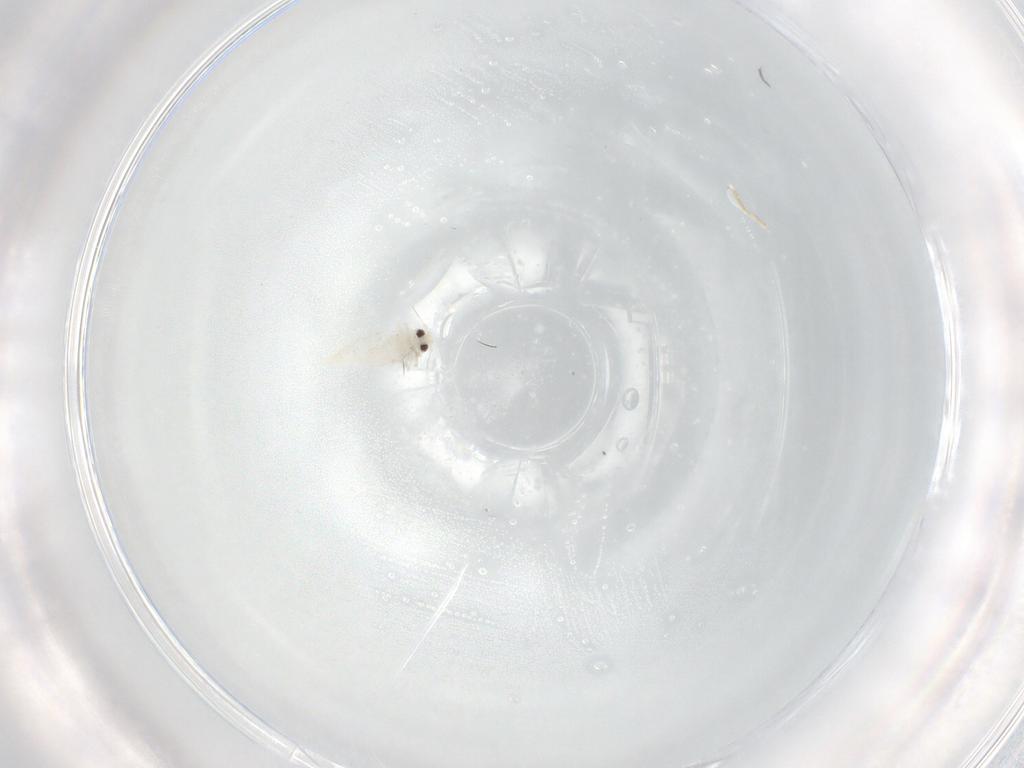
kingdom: Animalia
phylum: Arthropoda
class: Insecta
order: Hemiptera
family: Aleyrodidae
